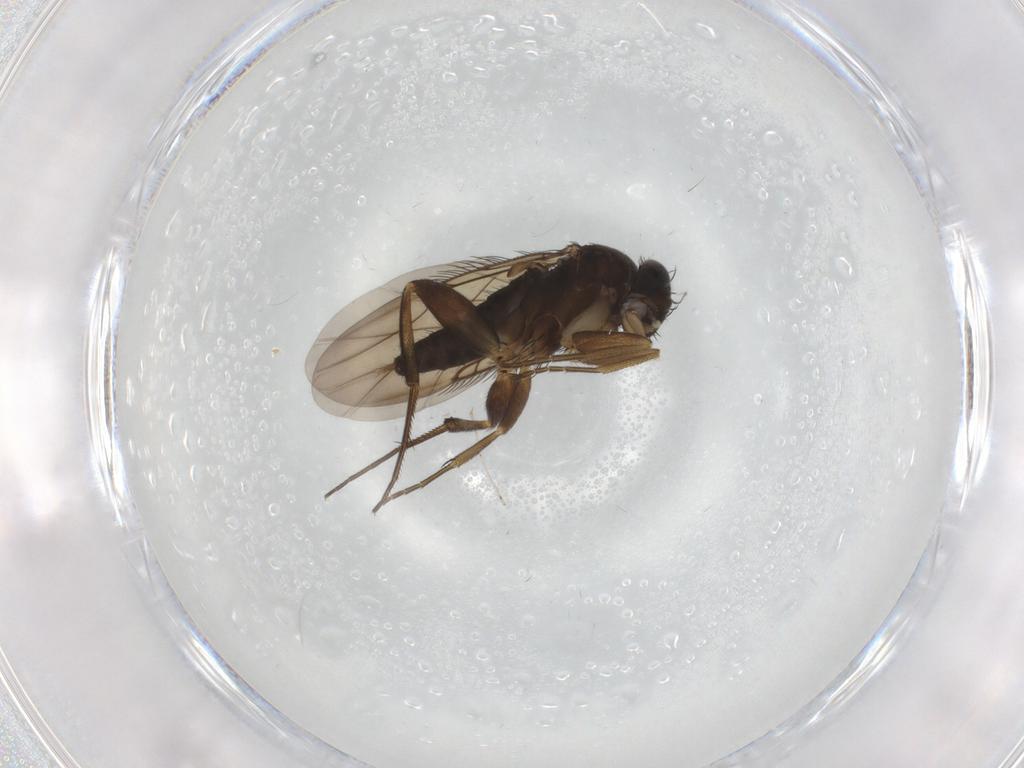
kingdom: Animalia
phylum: Arthropoda
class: Insecta
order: Diptera
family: Phoridae
